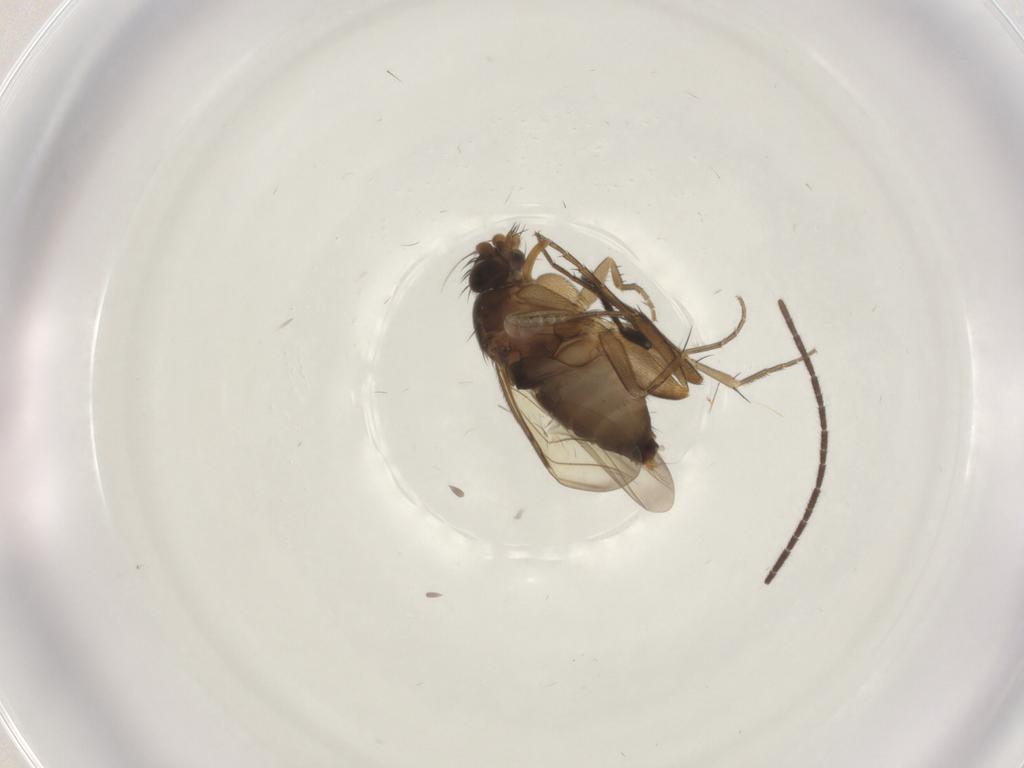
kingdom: Animalia
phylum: Arthropoda
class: Insecta
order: Diptera
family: Phoridae
